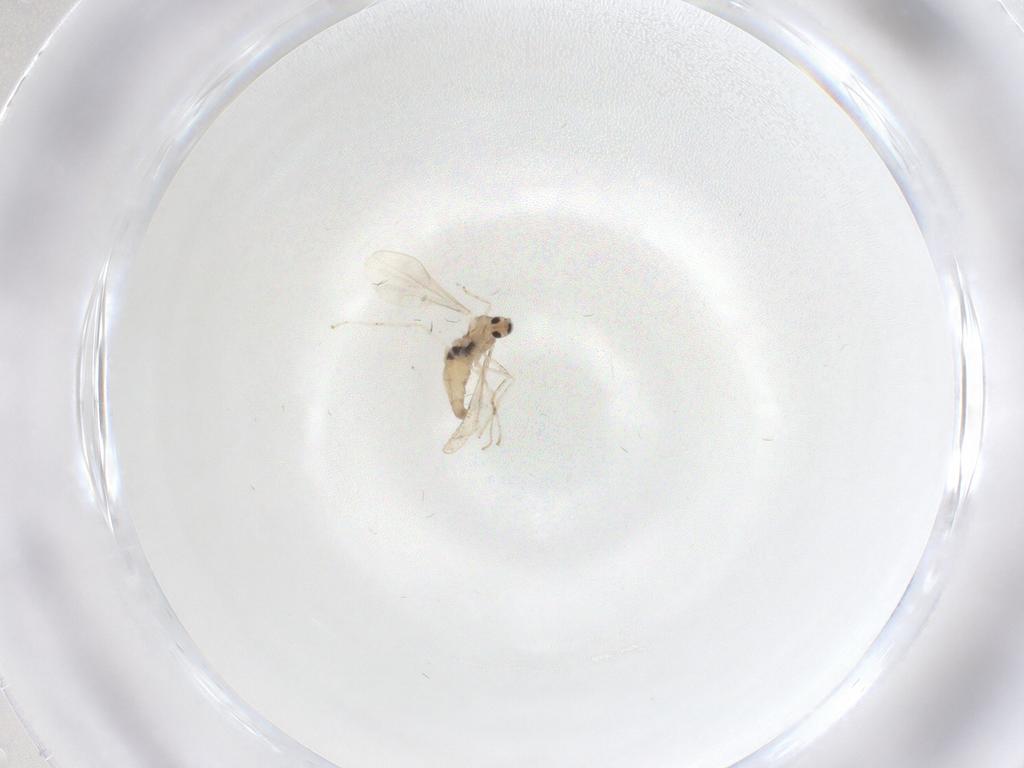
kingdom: Animalia
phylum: Arthropoda
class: Insecta
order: Diptera
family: Cecidomyiidae
